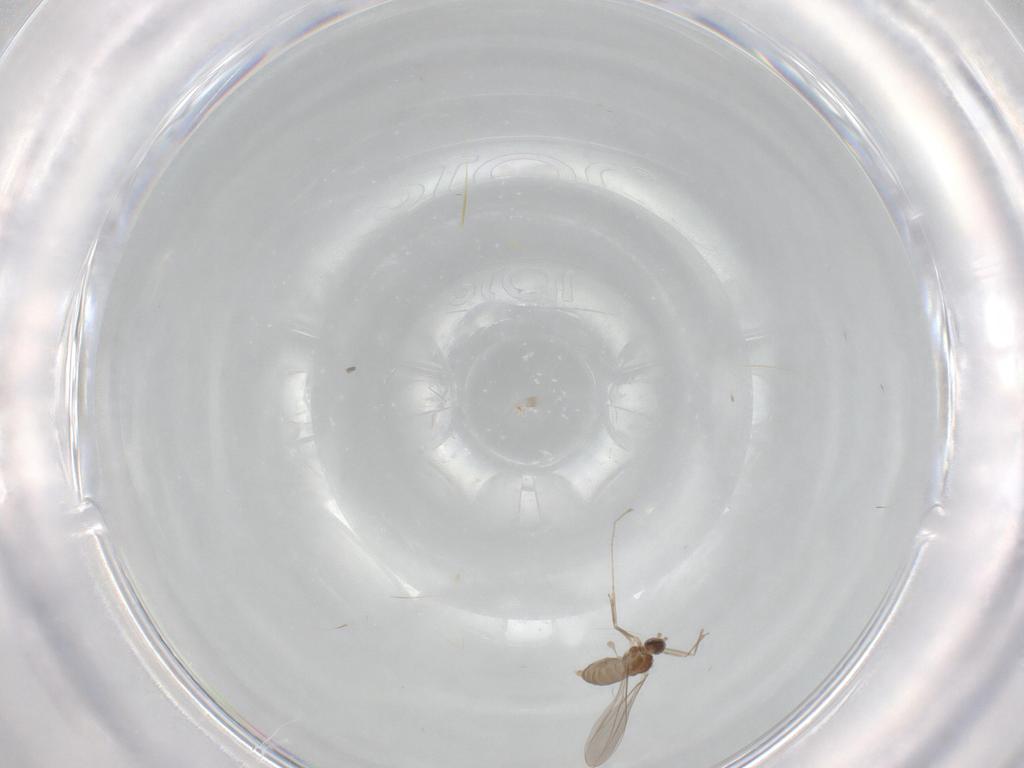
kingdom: Animalia
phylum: Arthropoda
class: Insecta
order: Diptera
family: Cecidomyiidae
